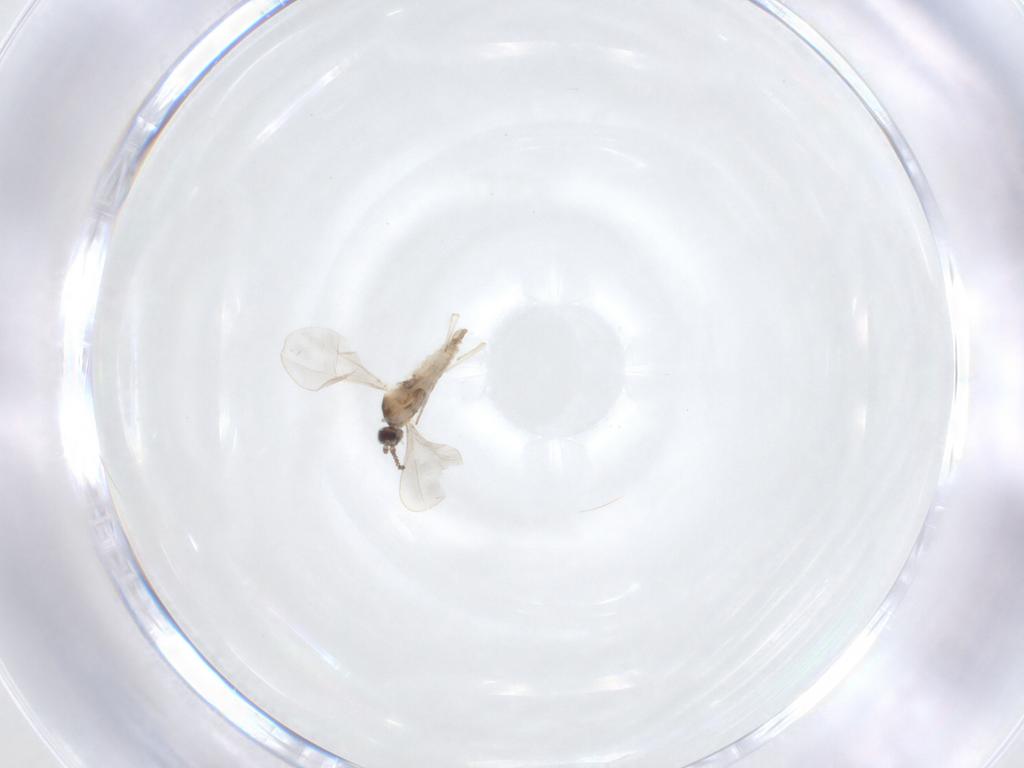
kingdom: Animalia
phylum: Arthropoda
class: Insecta
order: Diptera
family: Cecidomyiidae
